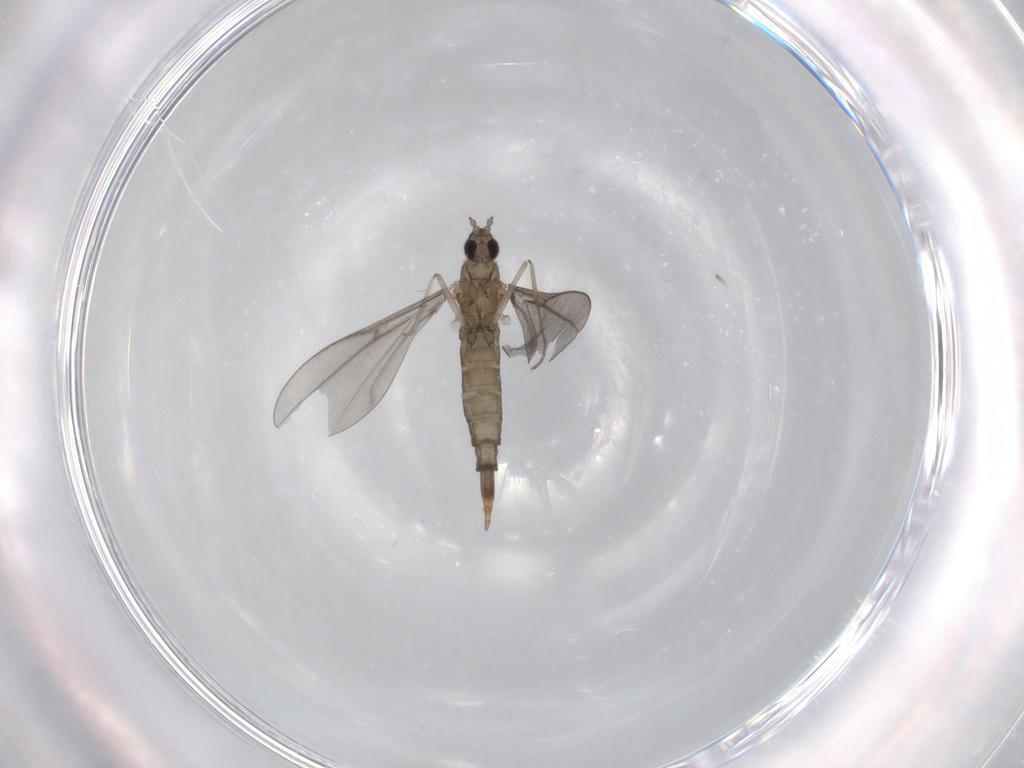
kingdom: Animalia
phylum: Arthropoda
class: Insecta
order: Diptera
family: Cecidomyiidae
